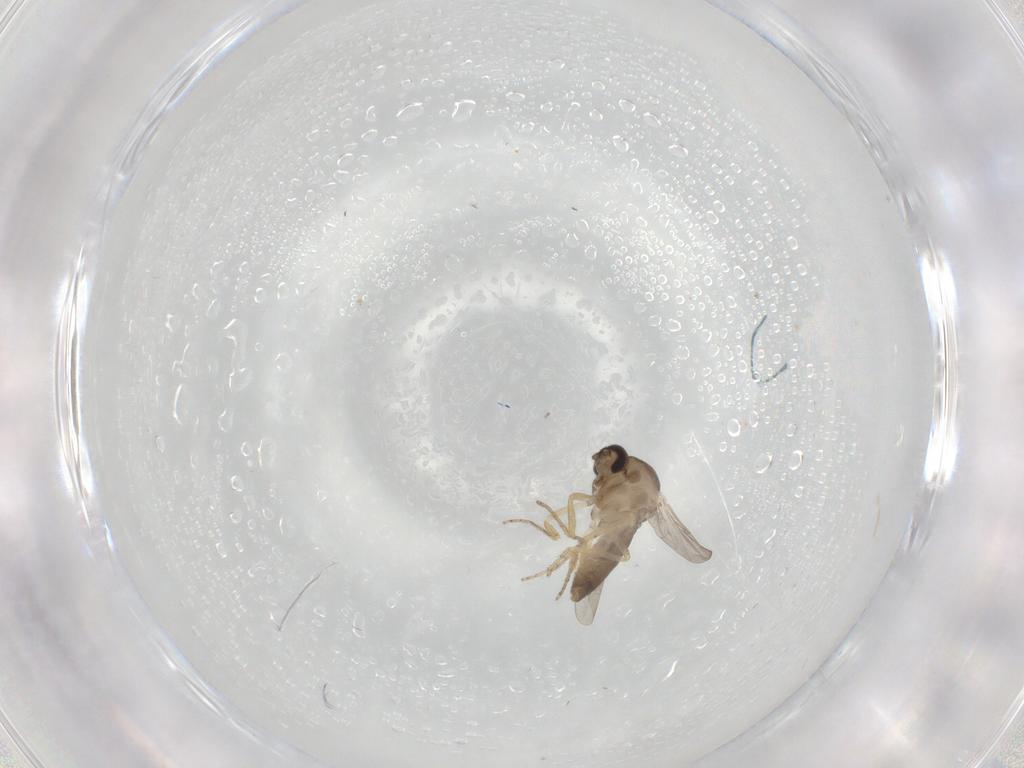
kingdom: Animalia
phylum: Arthropoda
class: Insecta
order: Diptera
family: Ceratopogonidae
